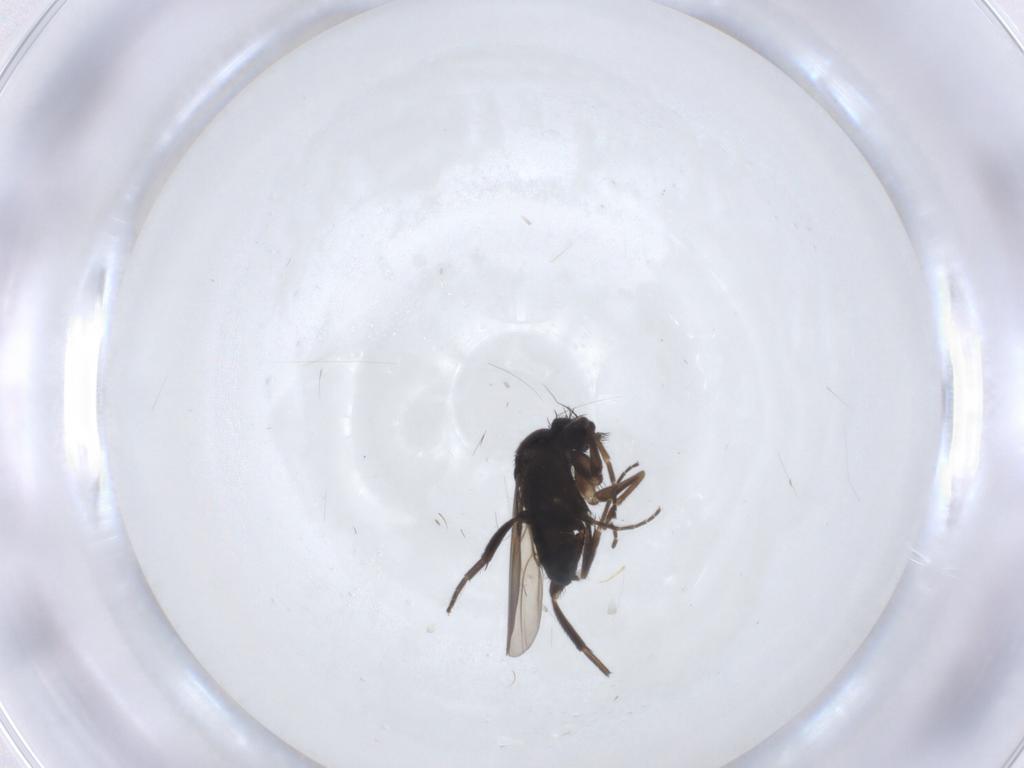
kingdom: Animalia
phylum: Arthropoda
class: Insecta
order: Diptera
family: Phoridae
